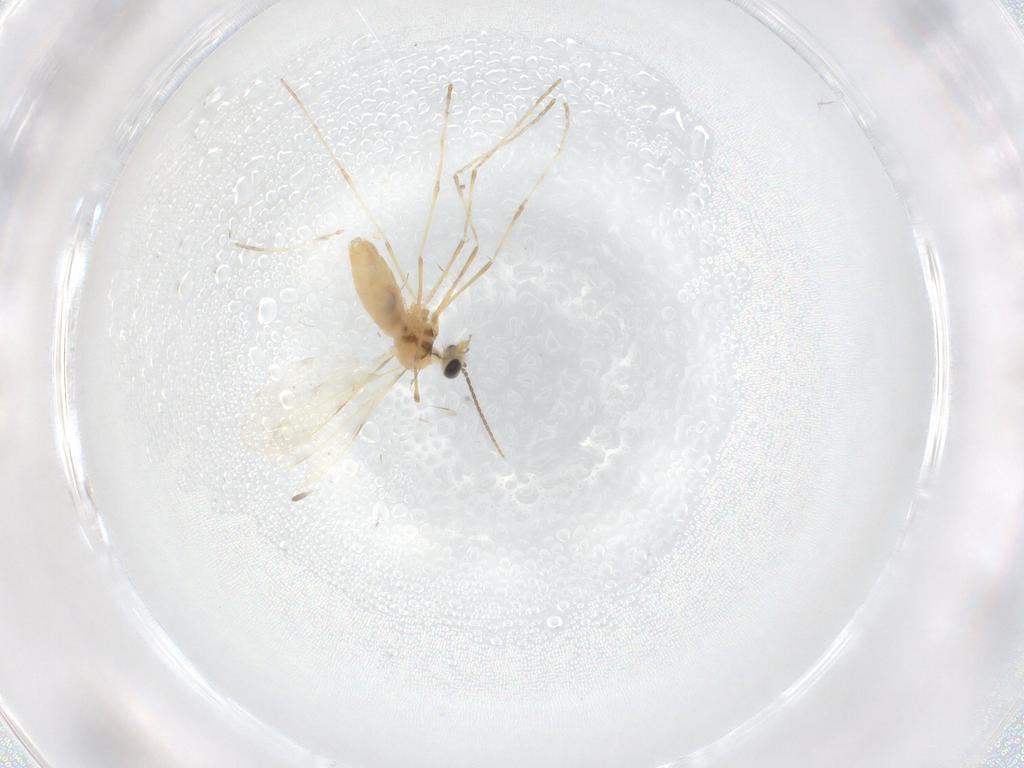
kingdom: Animalia
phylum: Arthropoda
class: Insecta
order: Diptera
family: Cecidomyiidae
